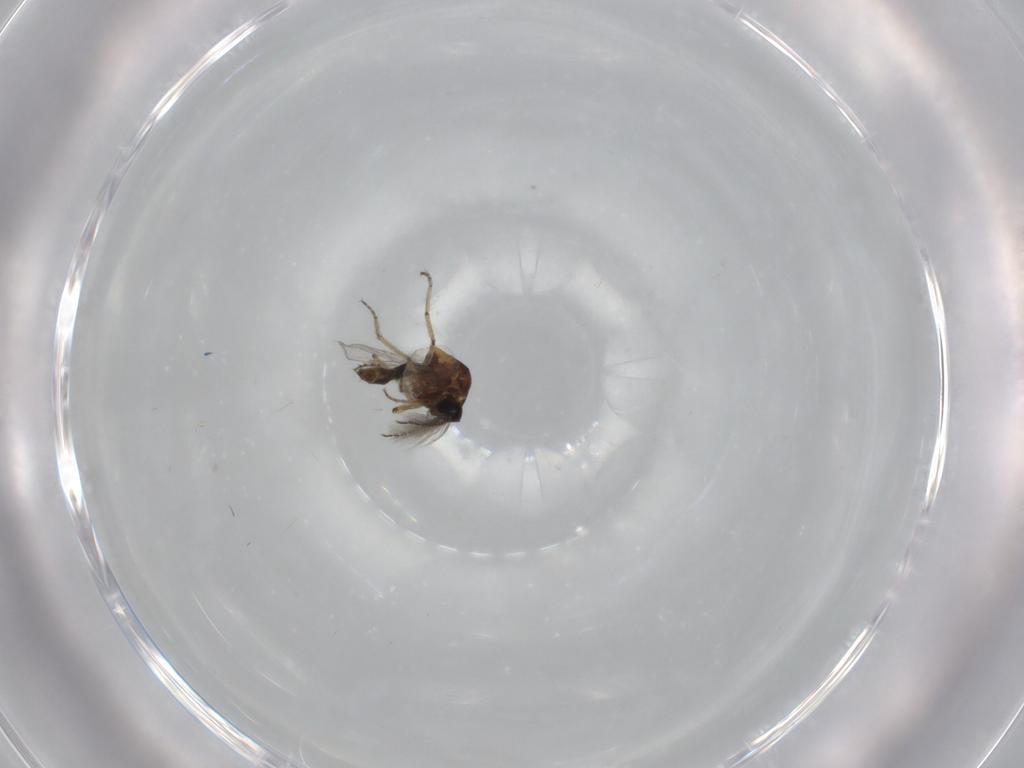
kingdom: Animalia
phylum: Arthropoda
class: Insecta
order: Diptera
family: Ceratopogonidae
